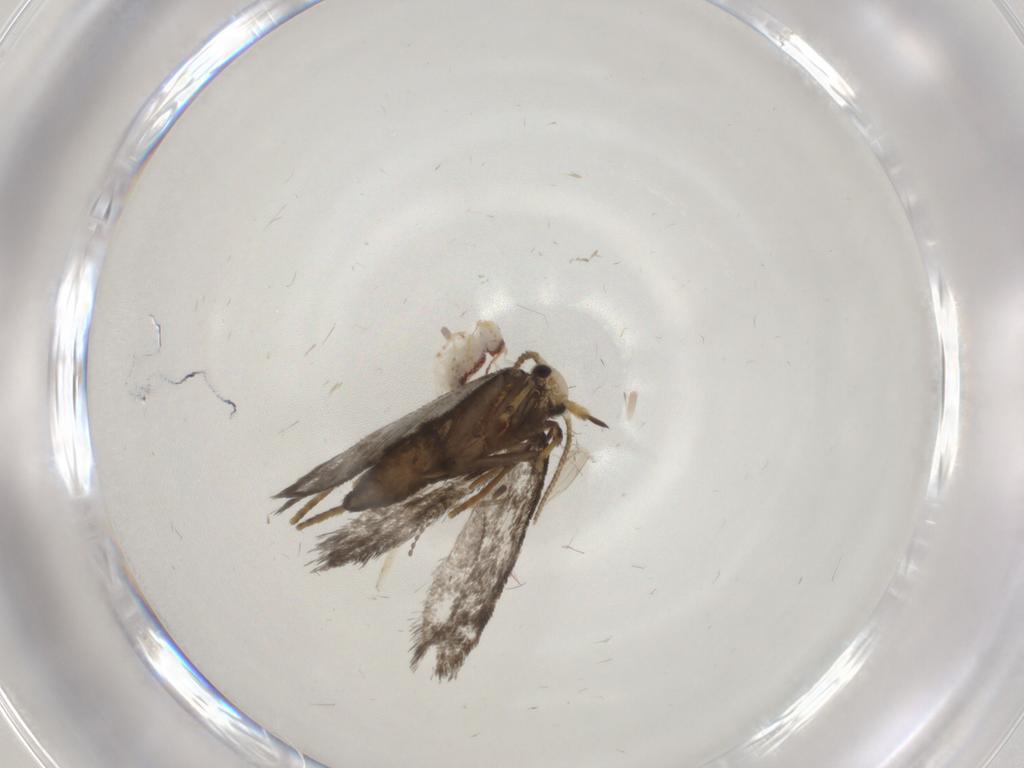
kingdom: Animalia
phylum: Arthropoda
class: Insecta
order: Lepidoptera
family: Psychidae
